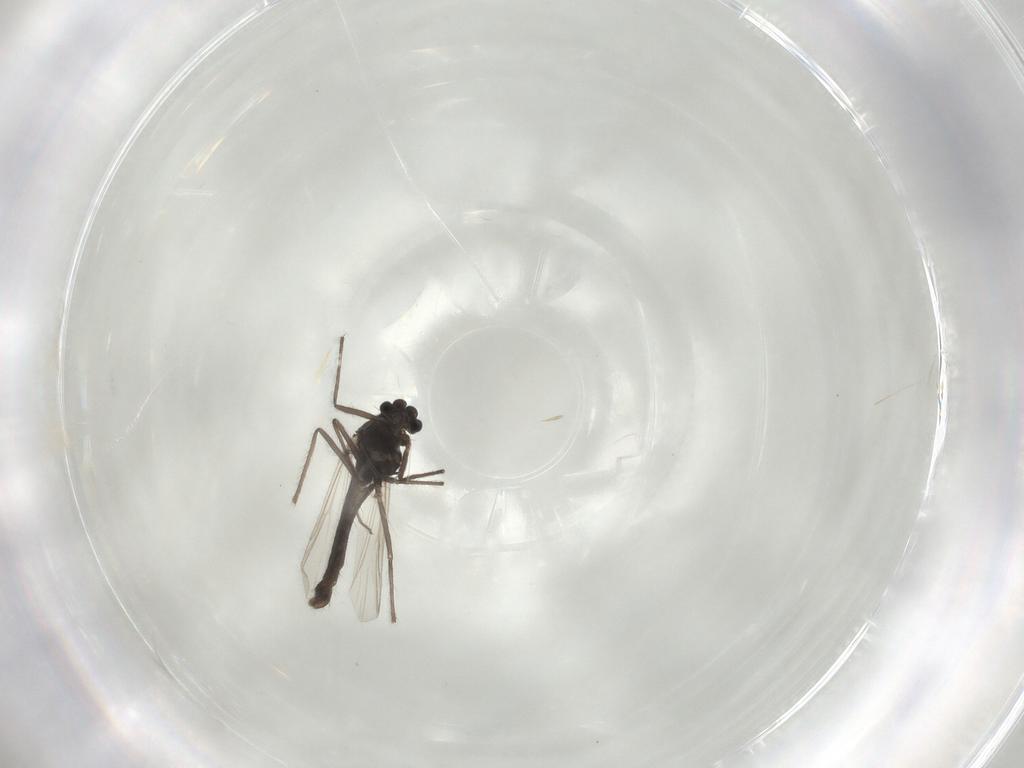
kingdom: Animalia
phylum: Arthropoda
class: Insecta
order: Diptera
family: Chironomidae
